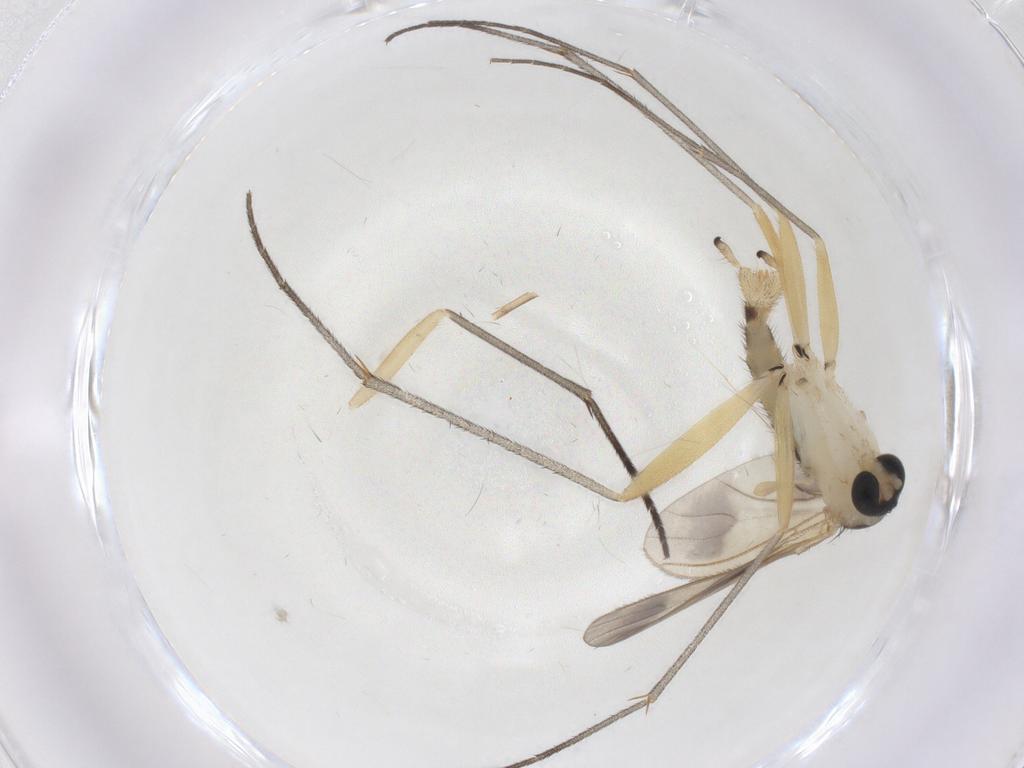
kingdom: Animalia
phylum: Arthropoda
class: Insecta
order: Diptera
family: Sciaridae
